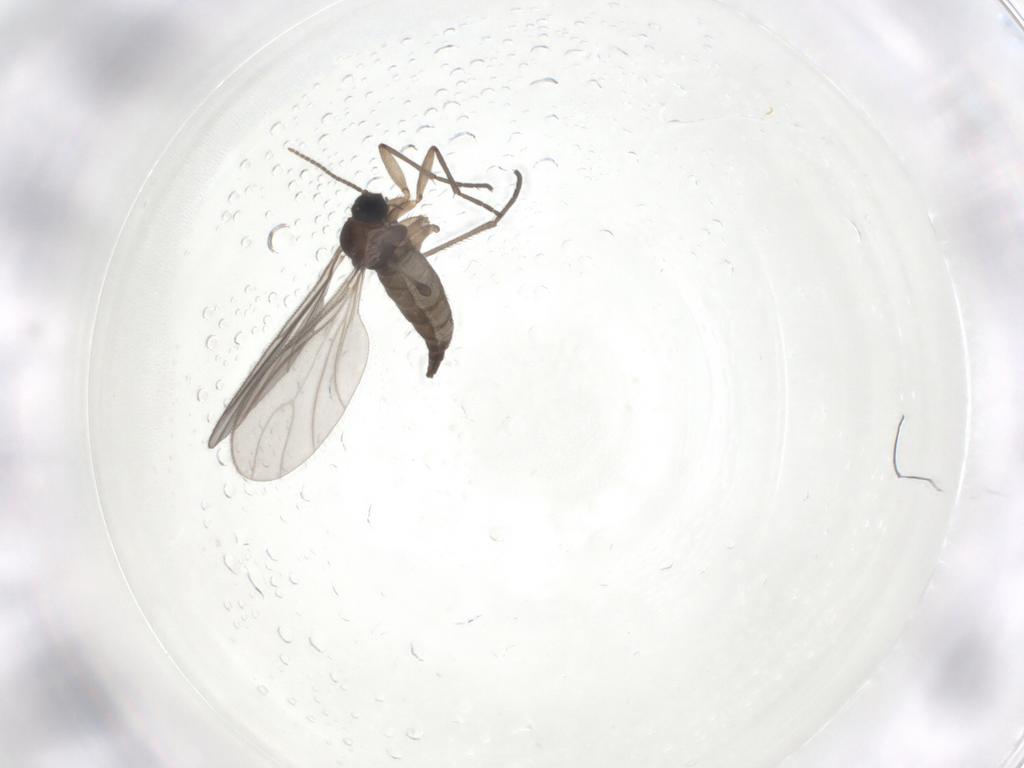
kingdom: Animalia
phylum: Arthropoda
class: Insecta
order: Diptera
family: Sciaridae
